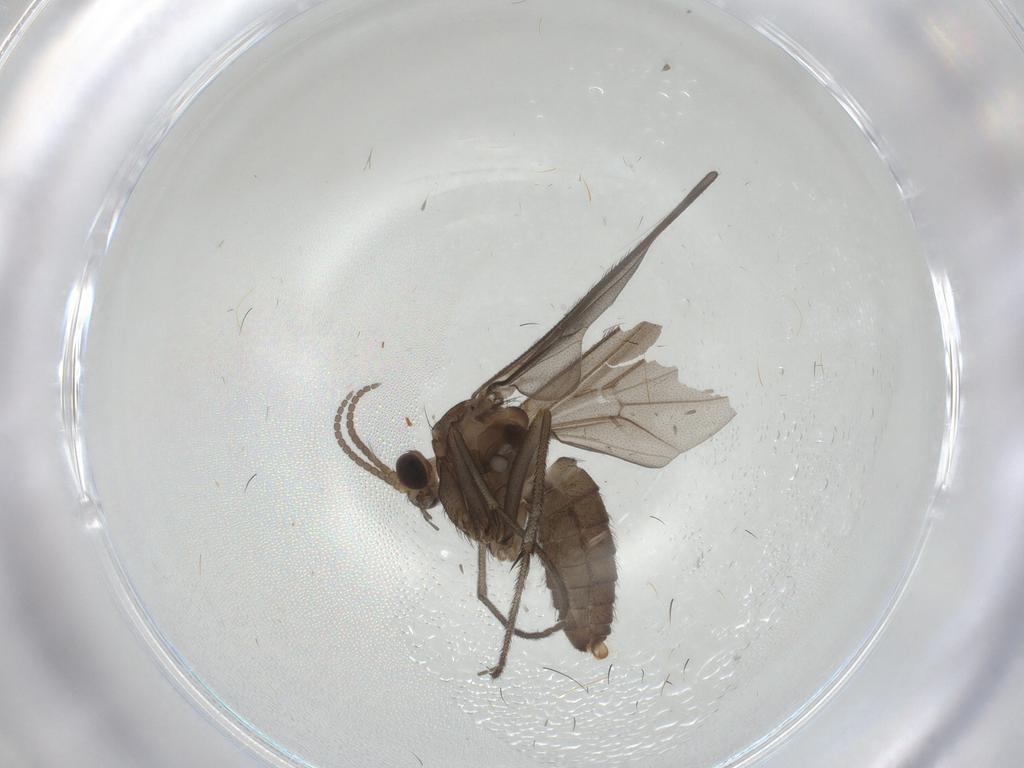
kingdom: Animalia
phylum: Arthropoda
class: Insecta
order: Diptera
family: Diadocidiidae
